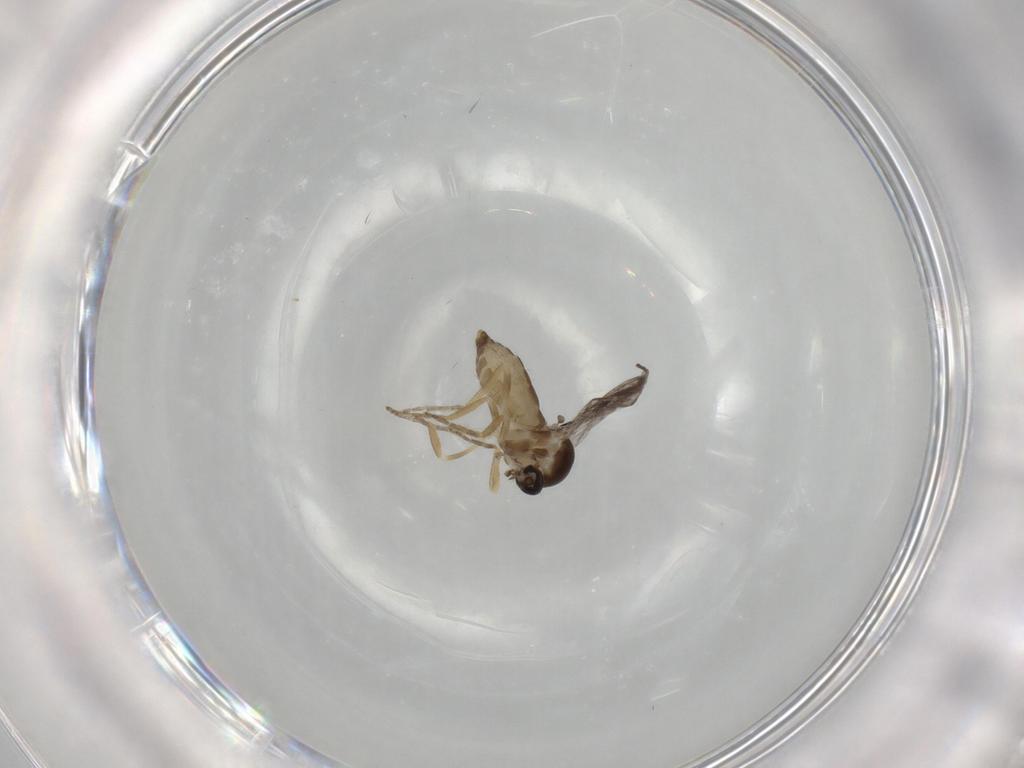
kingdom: Animalia
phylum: Arthropoda
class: Insecta
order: Diptera
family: Ceratopogonidae
